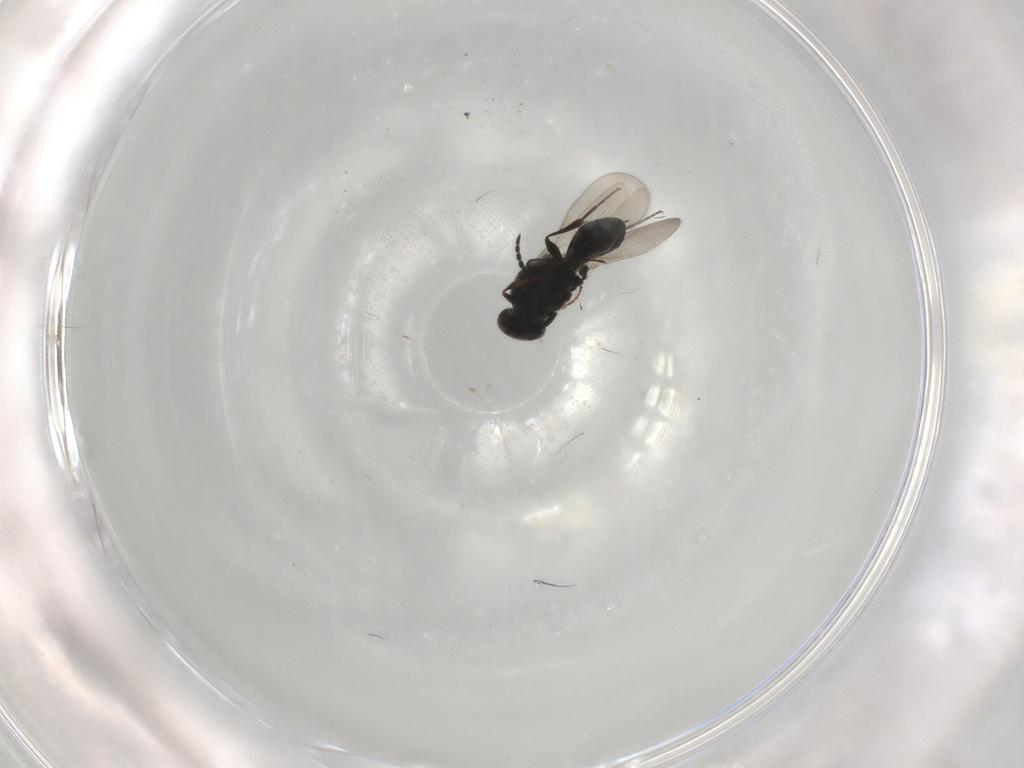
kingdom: Animalia
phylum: Arthropoda
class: Insecta
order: Hymenoptera
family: Platygastridae
